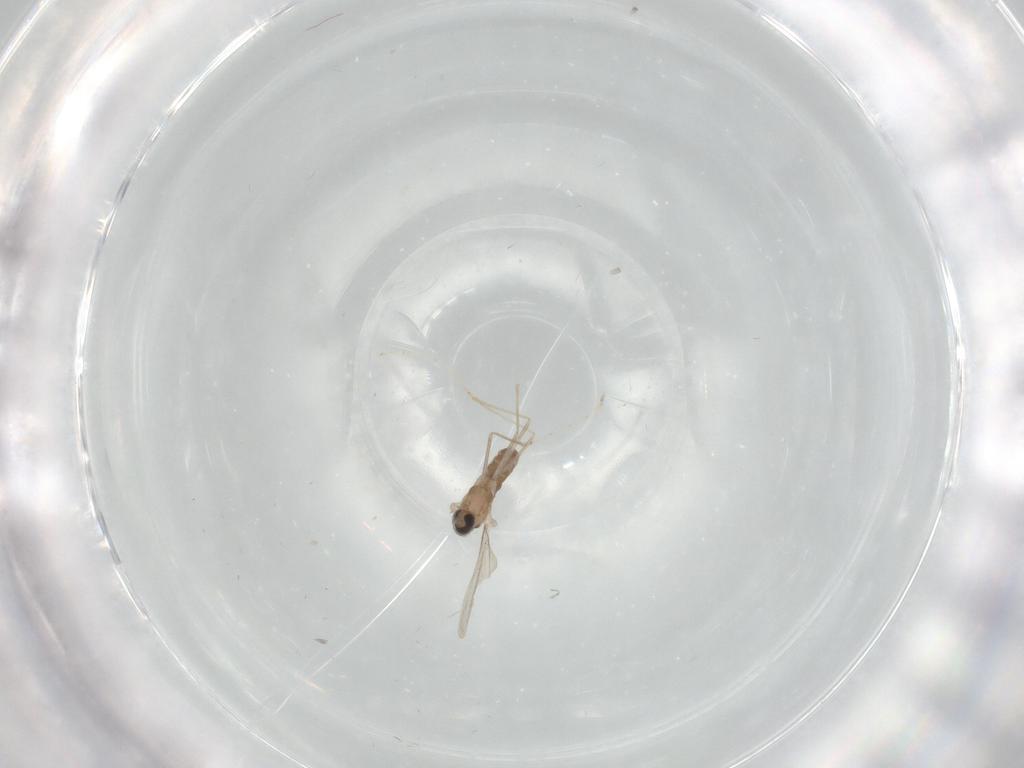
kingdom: Animalia
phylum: Arthropoda
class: Insecta
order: Diptera
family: Cecidomyiidae
